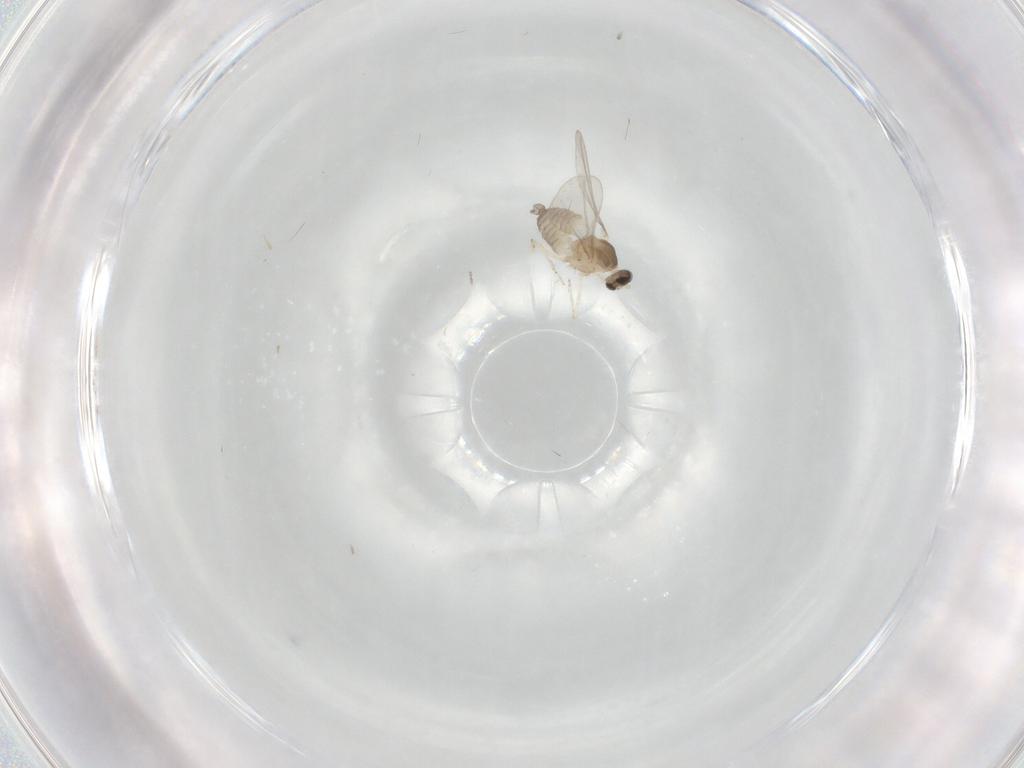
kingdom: Animalia
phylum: Arthropoda
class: Insecta
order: Diptera
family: Cecidomyiidae
